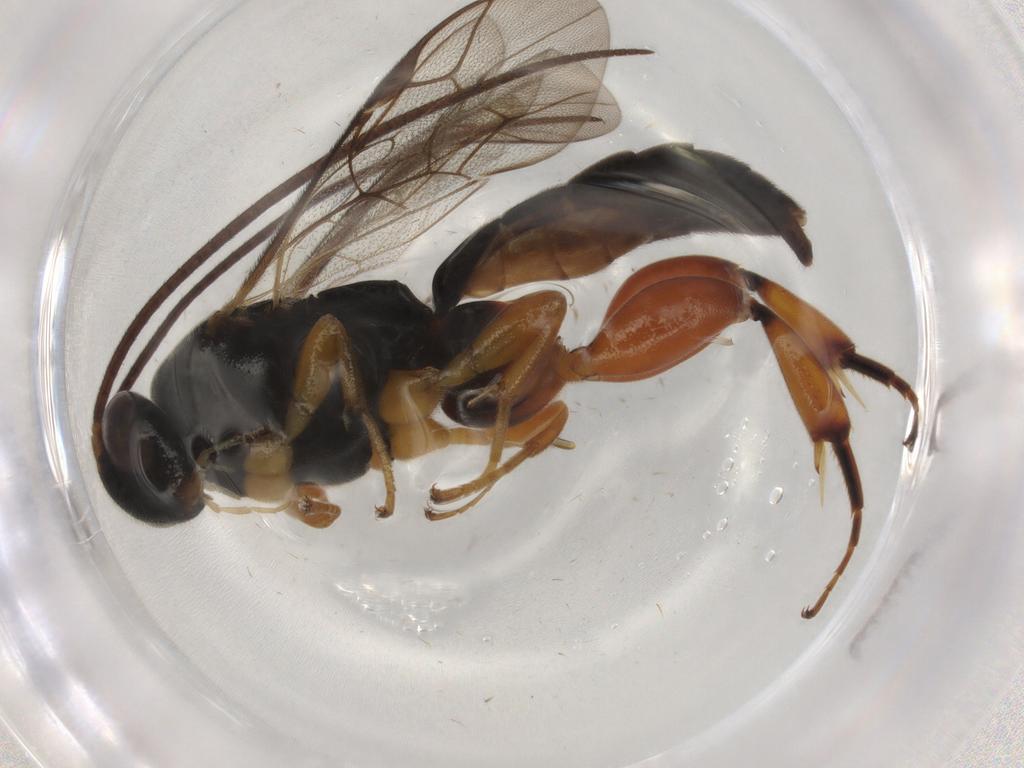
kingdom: Animalia
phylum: Arthropoda
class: Insecta
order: Hymenoptera
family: Ichneumonidae
